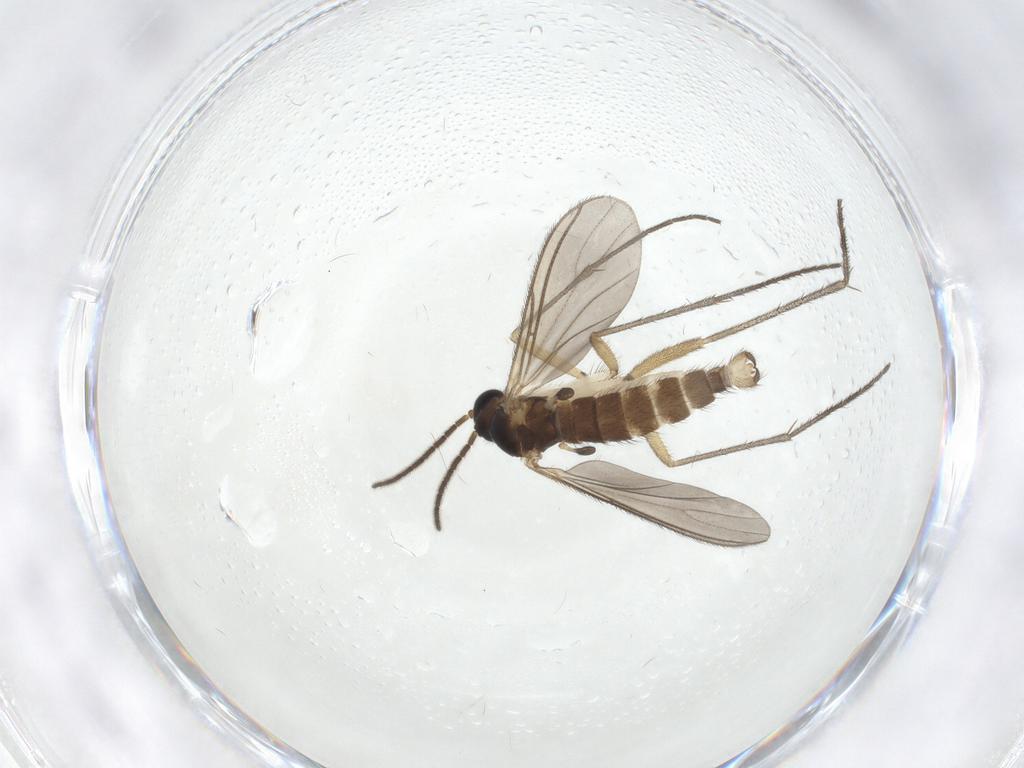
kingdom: Animalia
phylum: Arthropoda
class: Insecta
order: Diptera
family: Sciaridae
